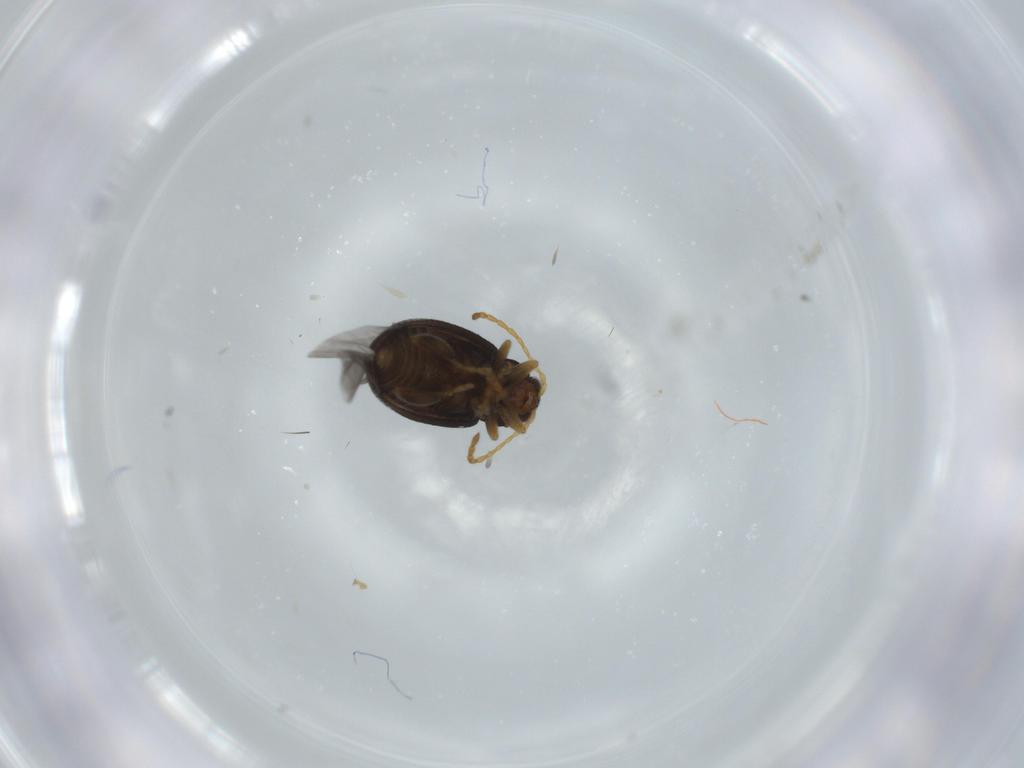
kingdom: Animalia
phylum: Arthropoda
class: Insecta
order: Coleoptera
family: Chrysomelidae
